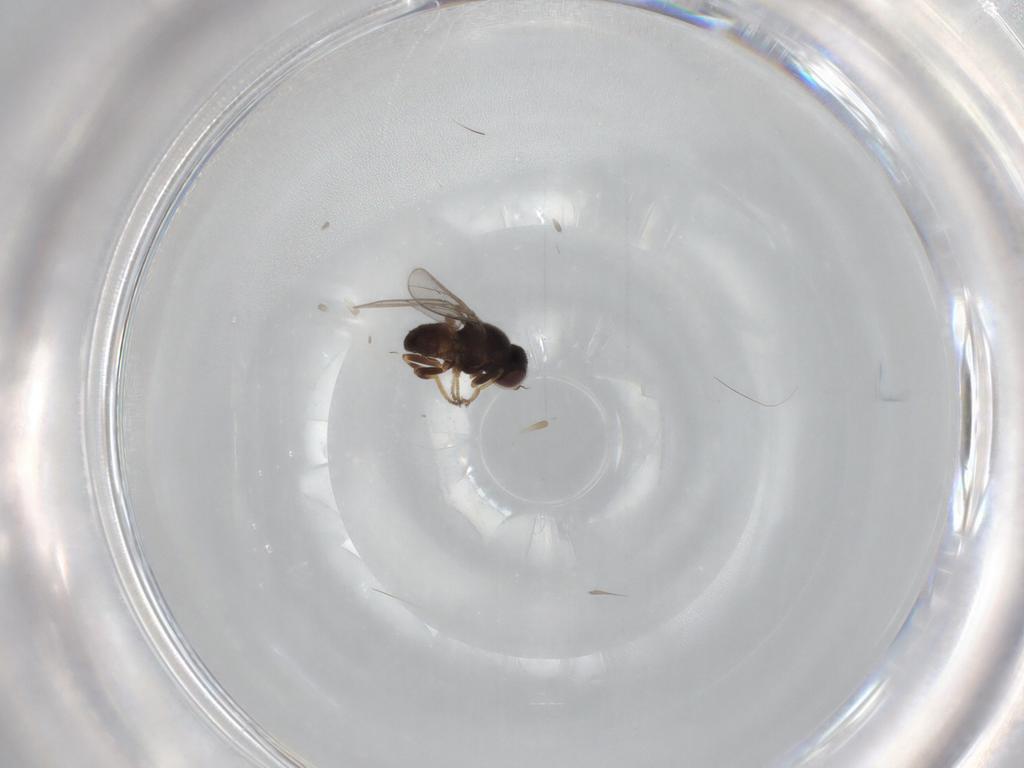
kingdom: Animalia
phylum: Arthropoda
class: Insecta
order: Diptera
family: Chloropidae
